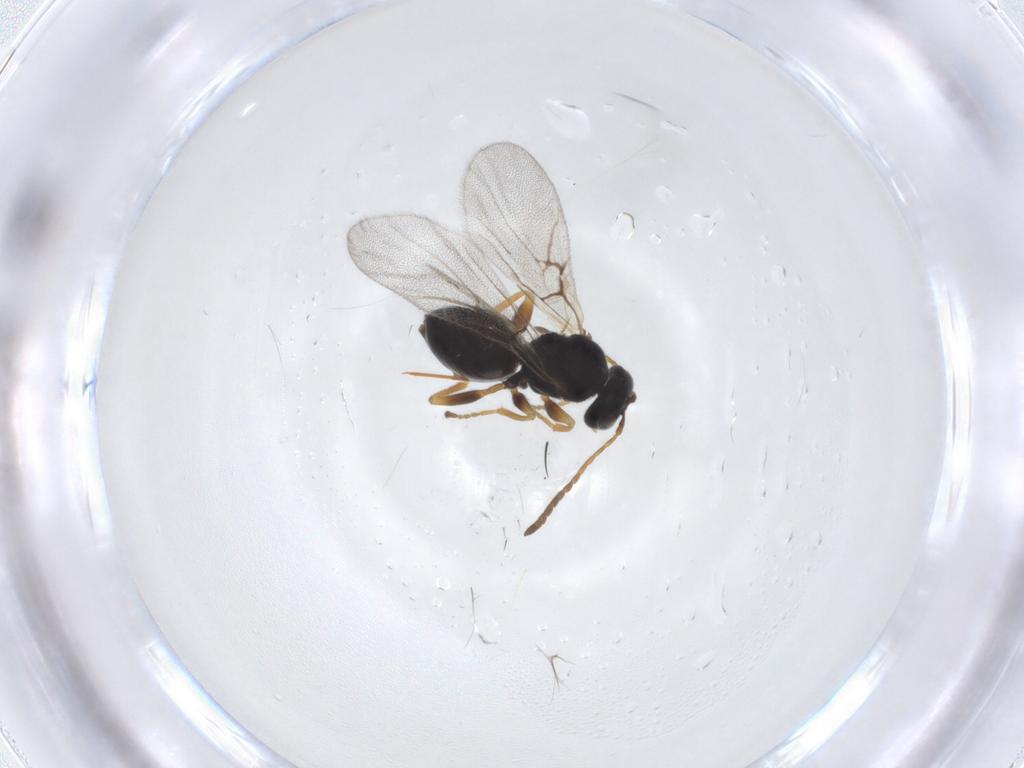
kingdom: Animalia
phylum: Arthropoda
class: Insecta
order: Hymenoptera
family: Cynipidae
